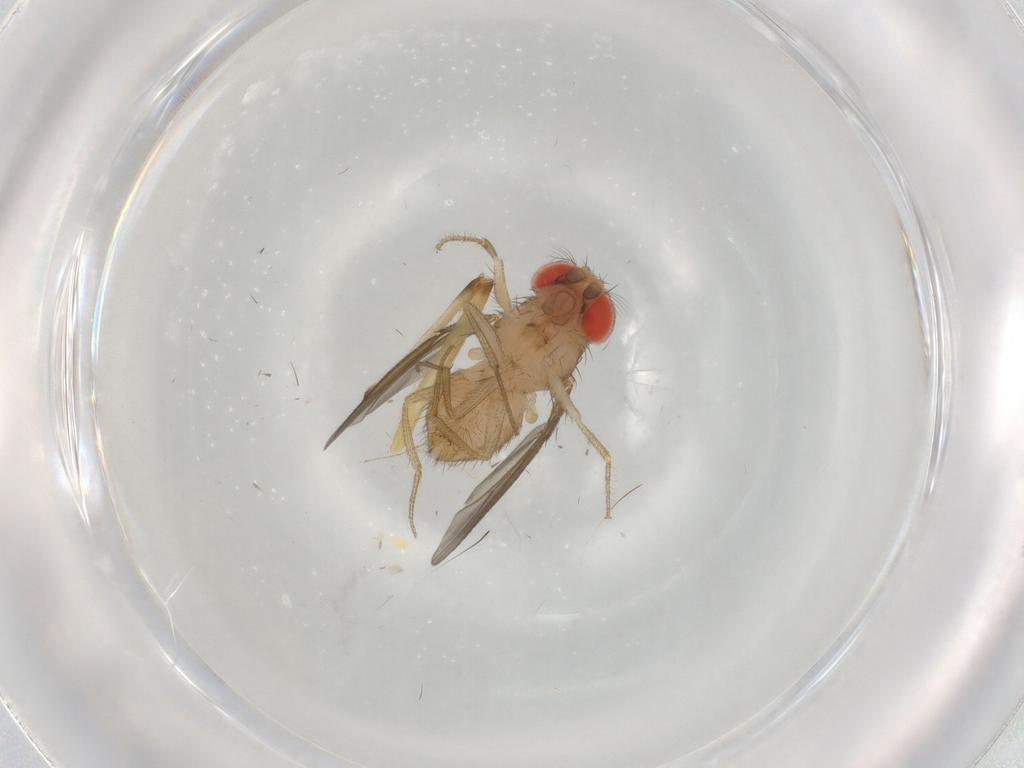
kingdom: Animalia
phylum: Arthropoda
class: Insecta
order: Diptera
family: Drosophilidae
